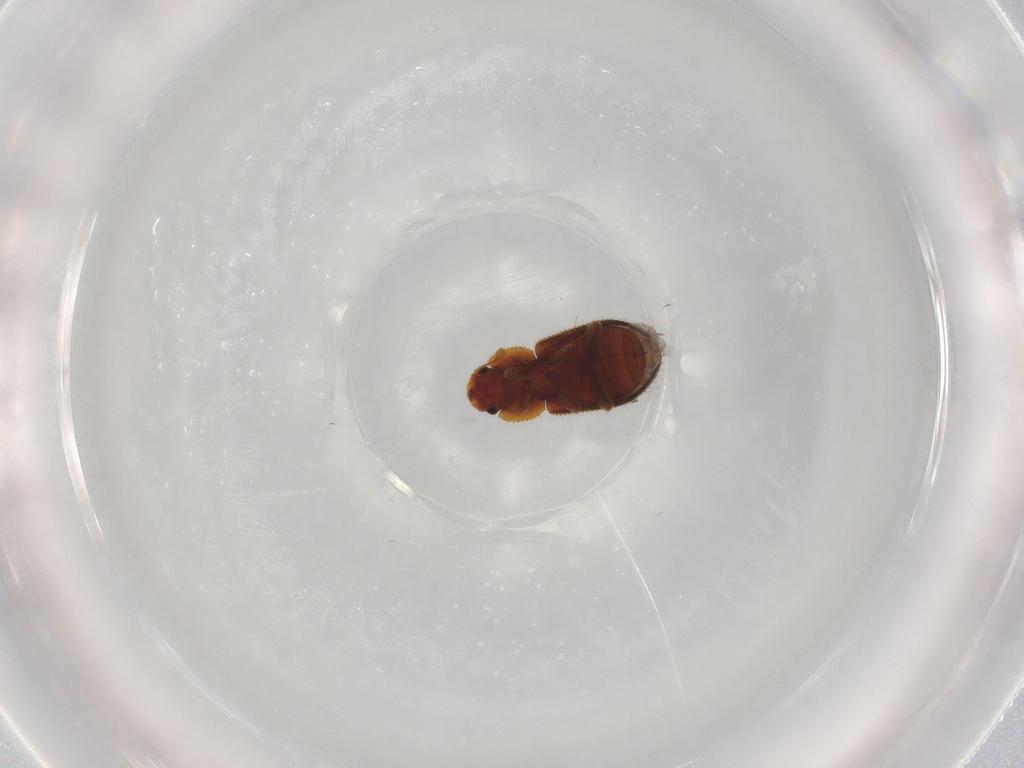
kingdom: Animalia
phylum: Arthropoda
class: Insecta
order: Coleoptera
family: Zopheridae
